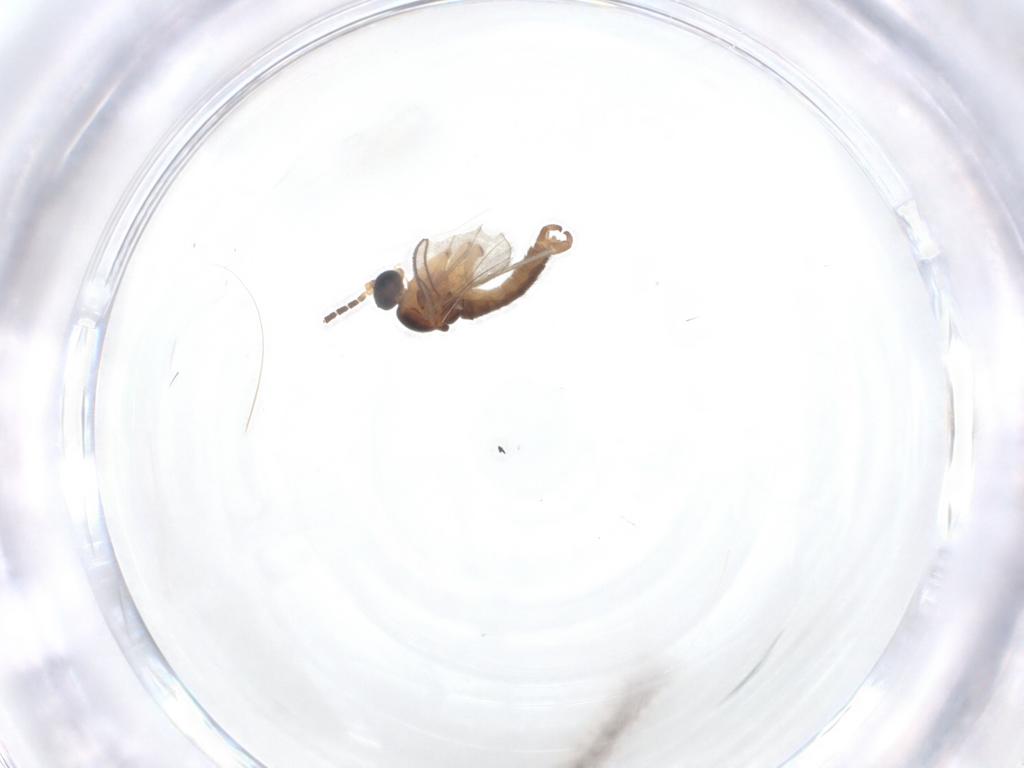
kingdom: Animalia
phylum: Arthropoda
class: Insecta
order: Diptera
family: Sciaridae
